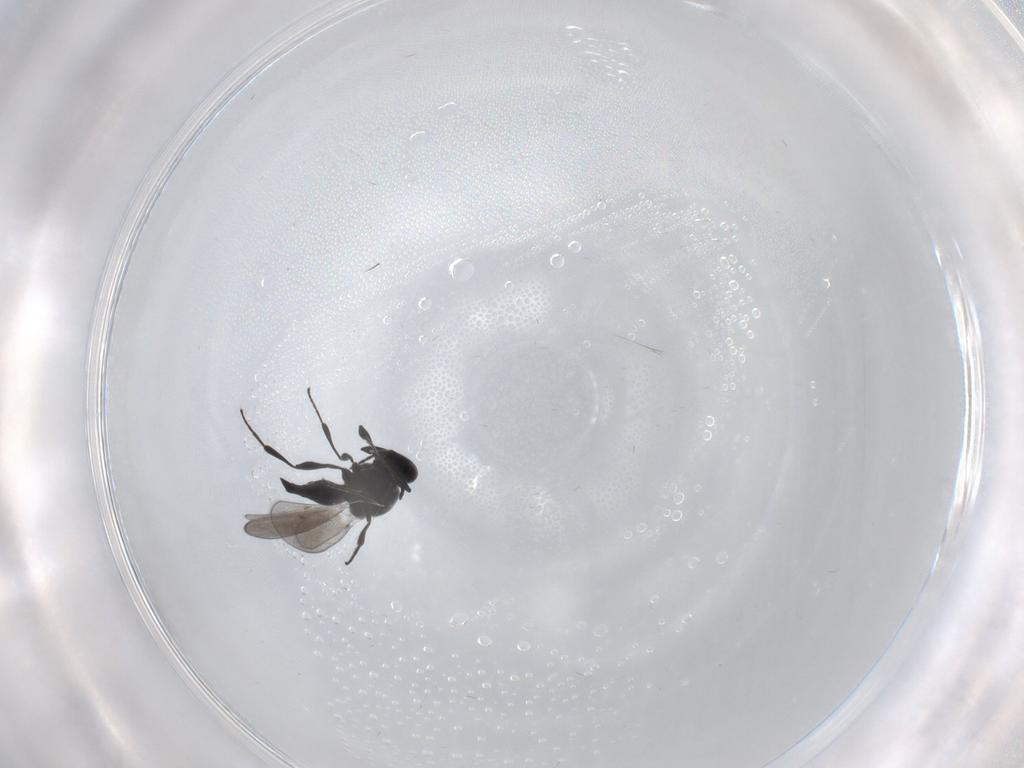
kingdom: Animalia
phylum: Arthropoda
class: Insecta
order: Diptera
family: Mythicomyiidae
